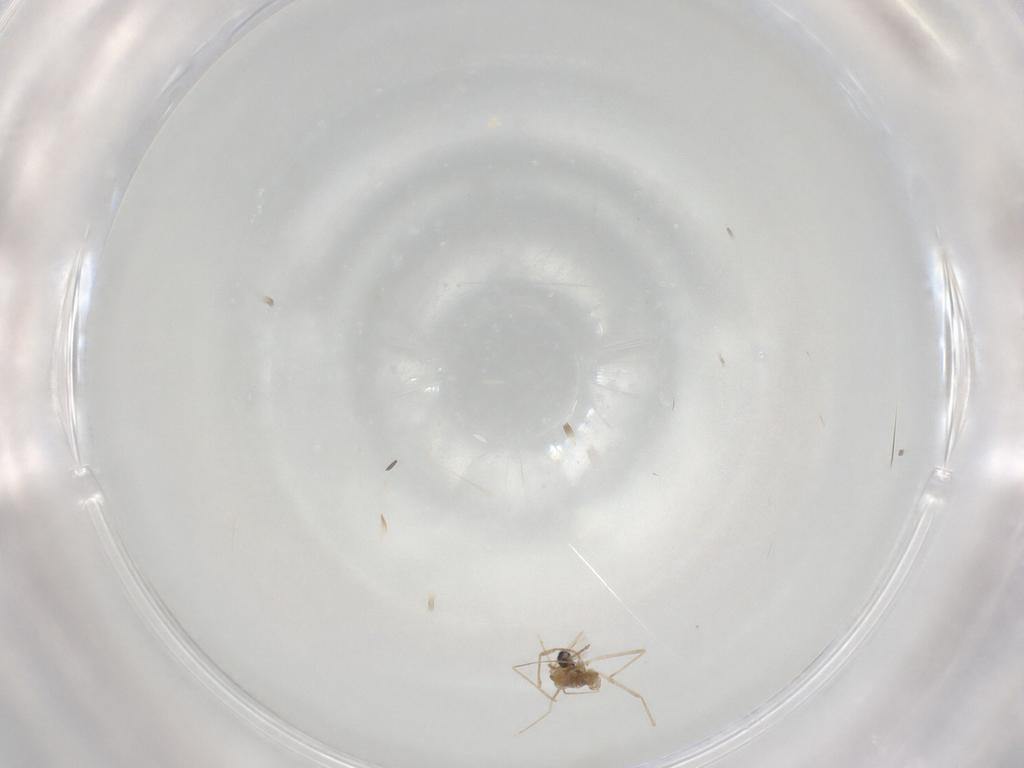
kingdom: Animalia
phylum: Arthropoda
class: Insecta
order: Diptera
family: Cecidomyiidae
